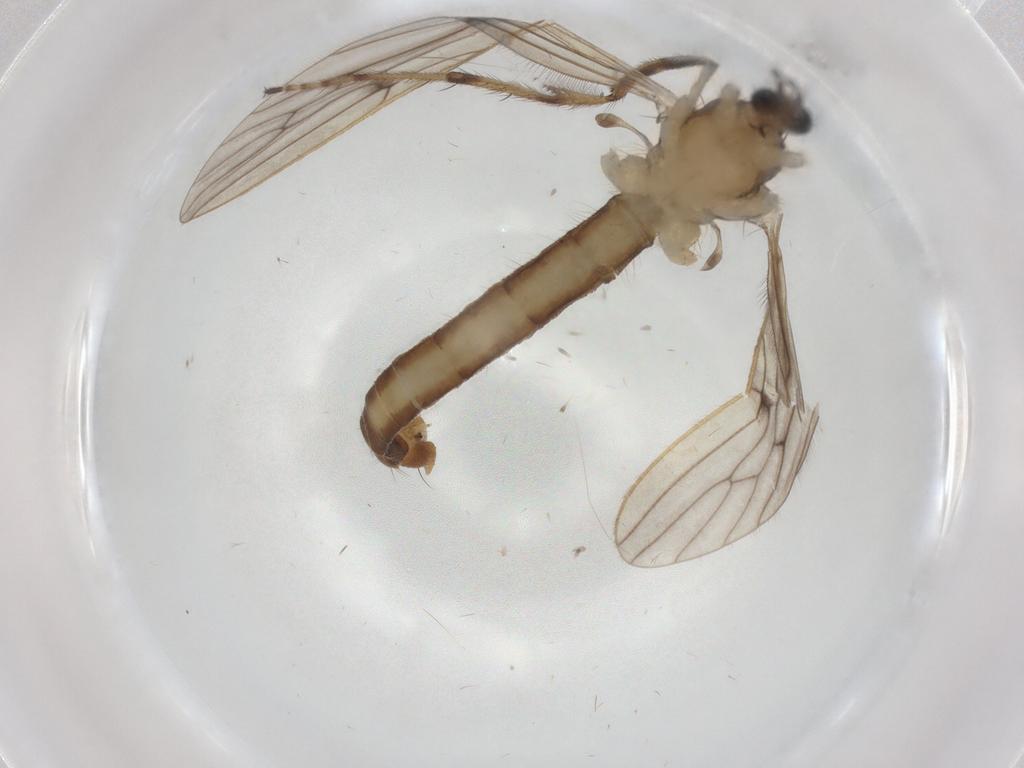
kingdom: Animalia
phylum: Arthropoda
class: Insecta
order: Diptera
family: Limoniidae
